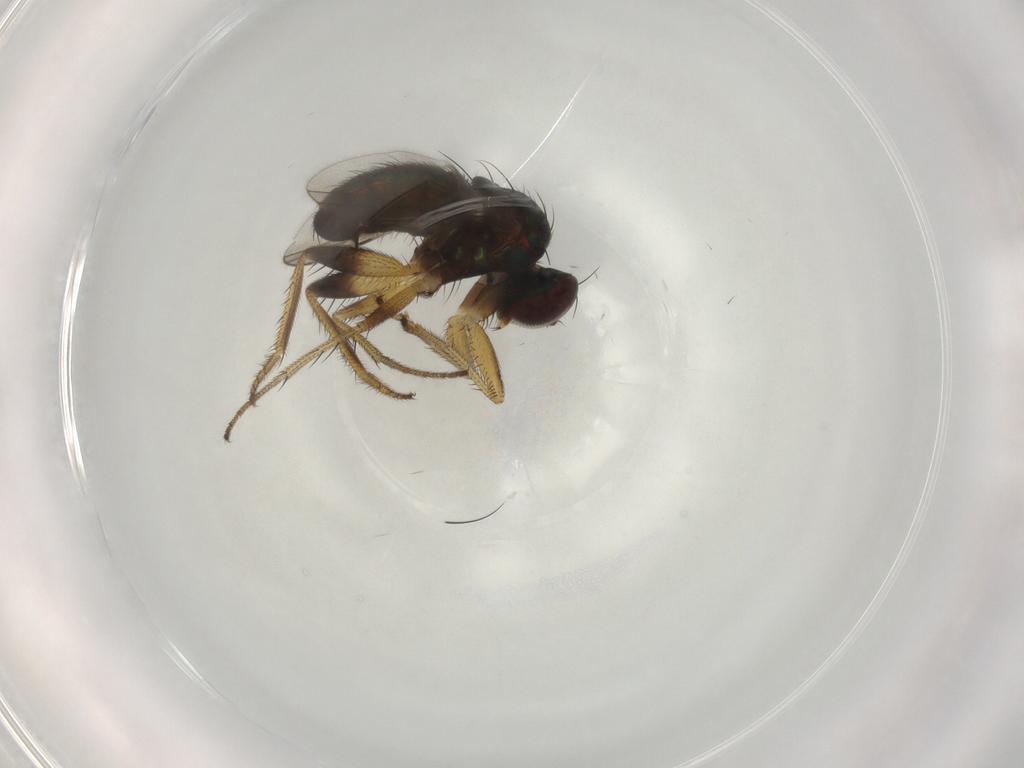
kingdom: Animalia
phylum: Arthropoda
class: Insecta
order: Diptera
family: Dolichopodidae
